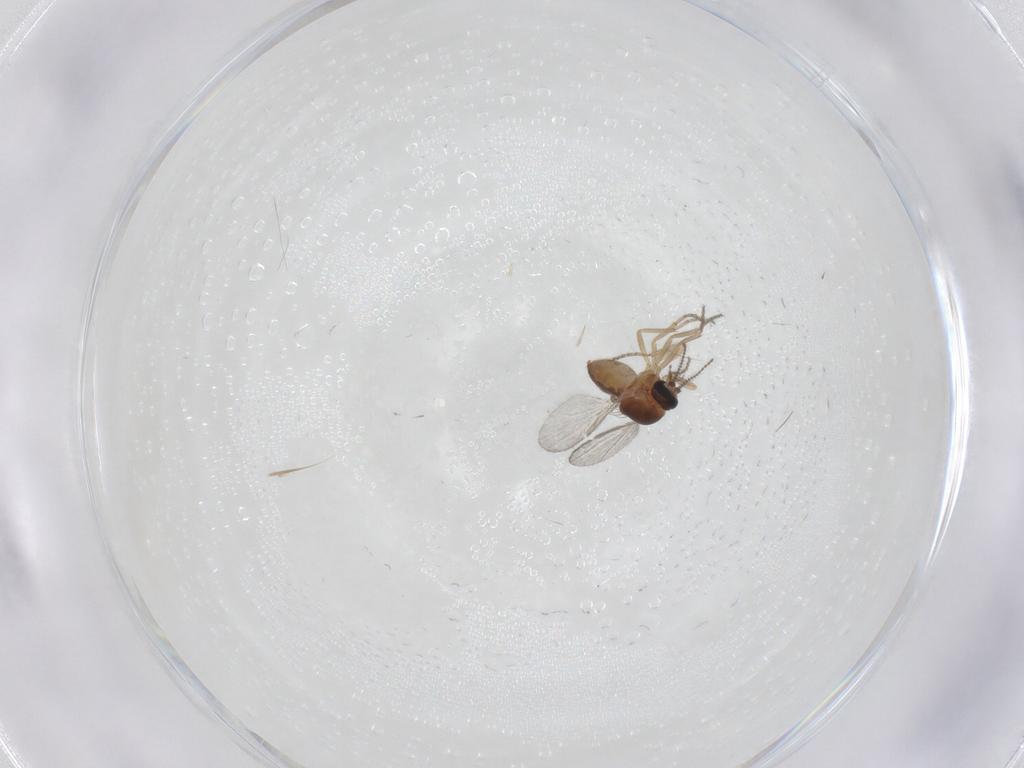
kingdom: Animalia
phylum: Arthropoda
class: Insecta
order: Diptera
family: Ceratopogonidae
